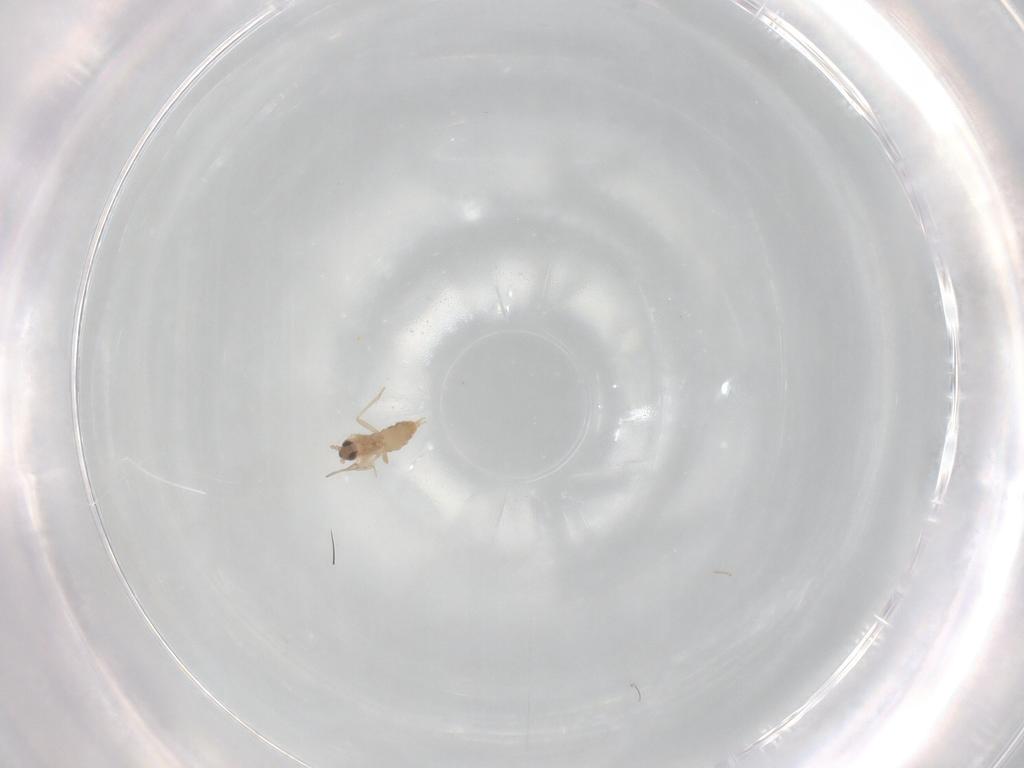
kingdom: Animalia
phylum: Arthropoda
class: Insecta
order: Diptera
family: Cecidomyiidae
